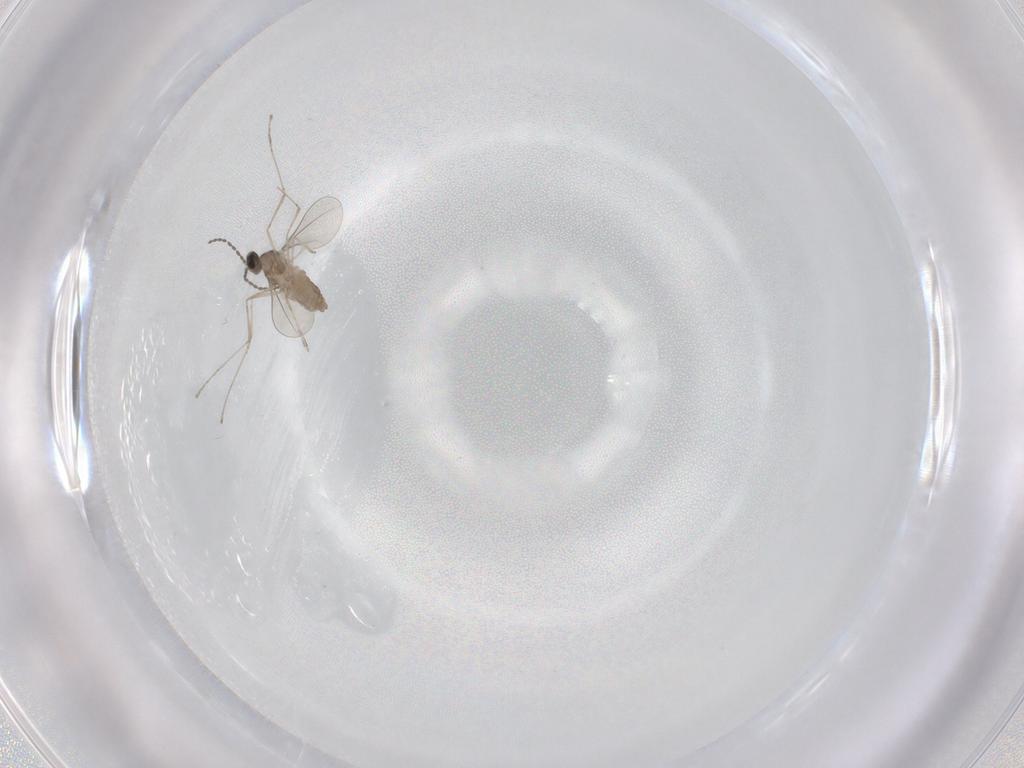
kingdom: Animalia
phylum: Arthropoda
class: Insecta
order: Diptera
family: Cecidomyiidae
